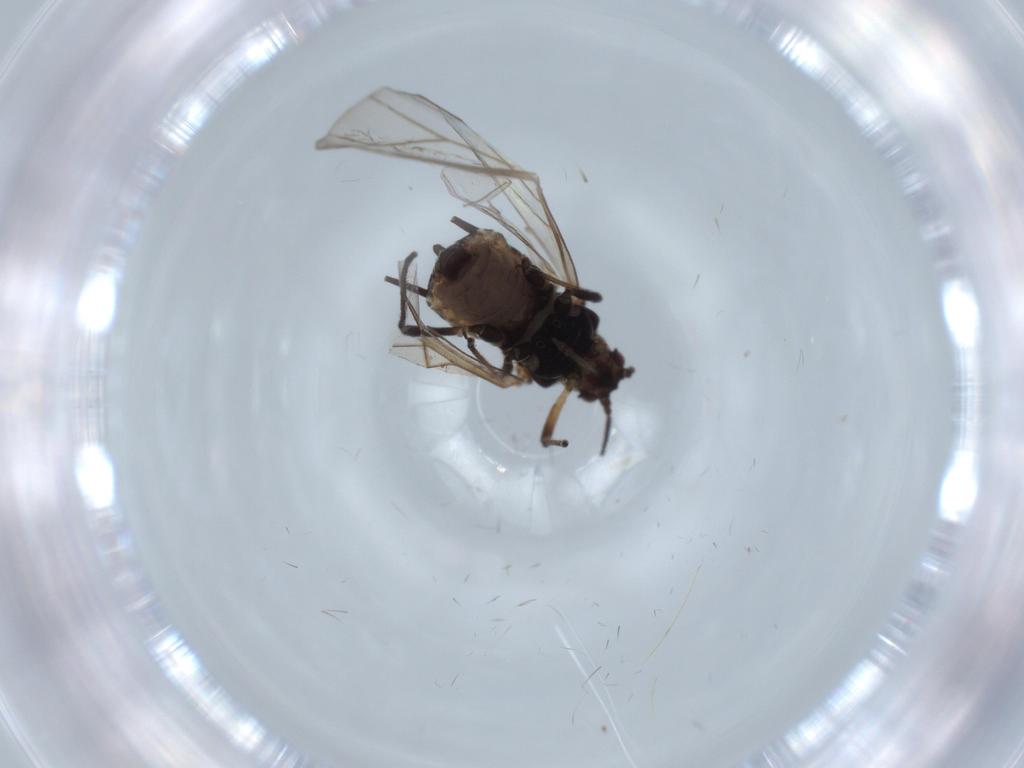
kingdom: Animalia
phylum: Arthropoda
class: Insecta
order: Hemiptera
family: Aphididae
